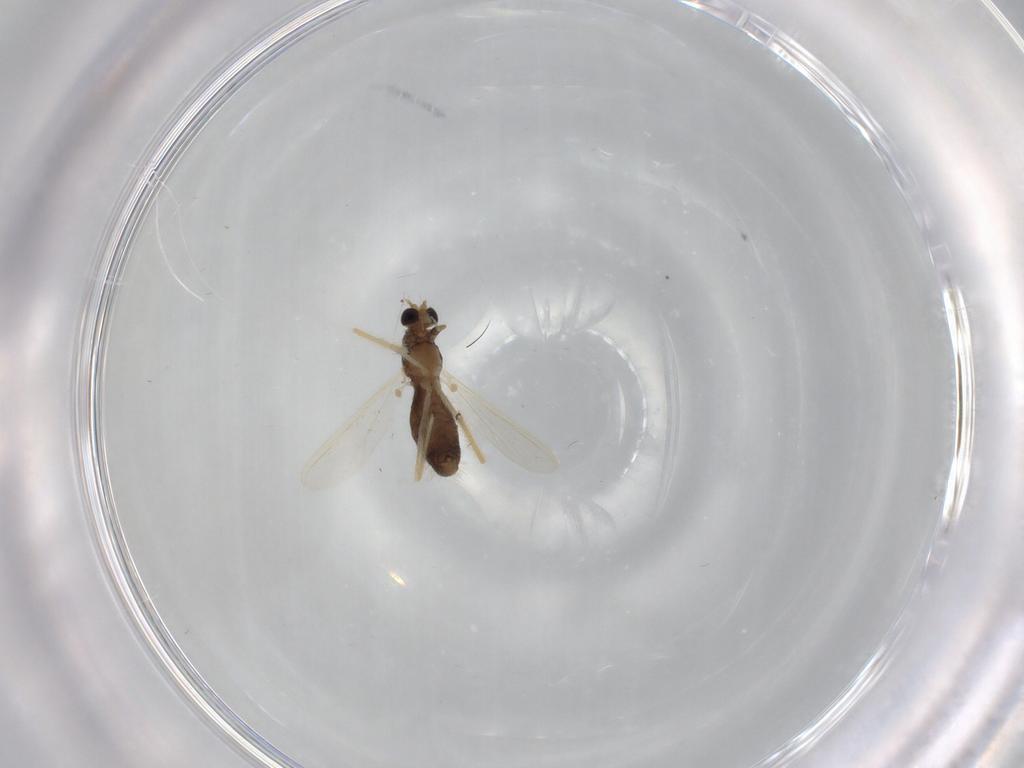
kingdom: Animalia
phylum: Arthropoda
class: Insecta
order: Diptera
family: Chironomidae
